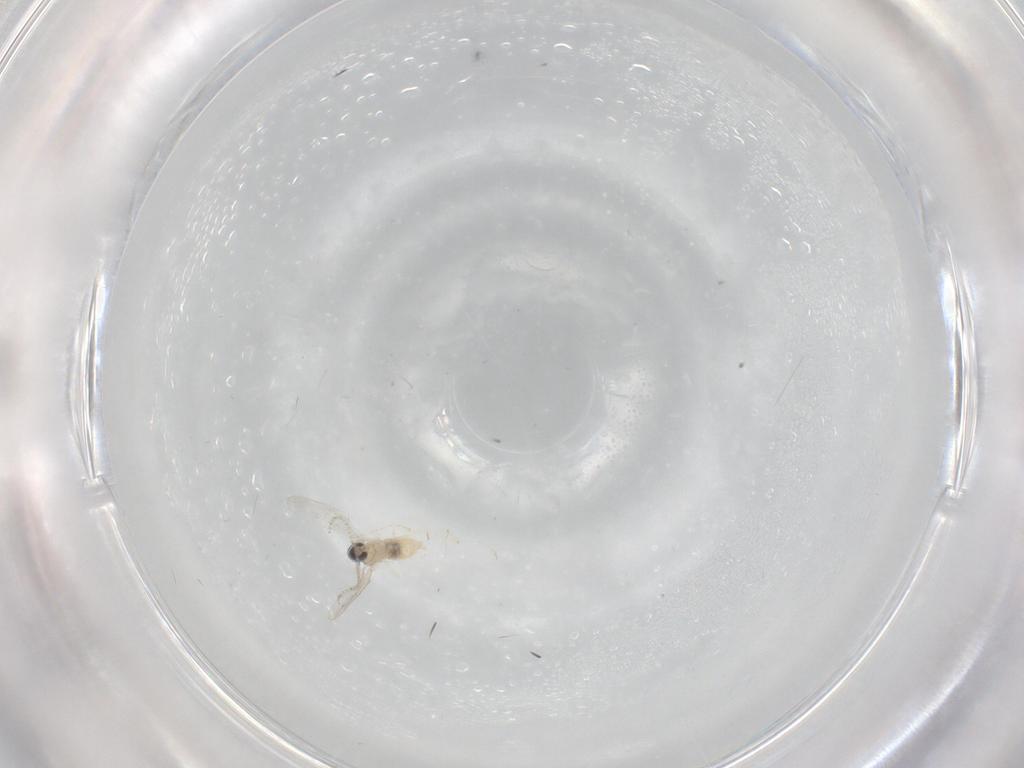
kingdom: Animalia
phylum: Arthropoda
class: Insecta
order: Diptera
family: Cecidomyiidae
